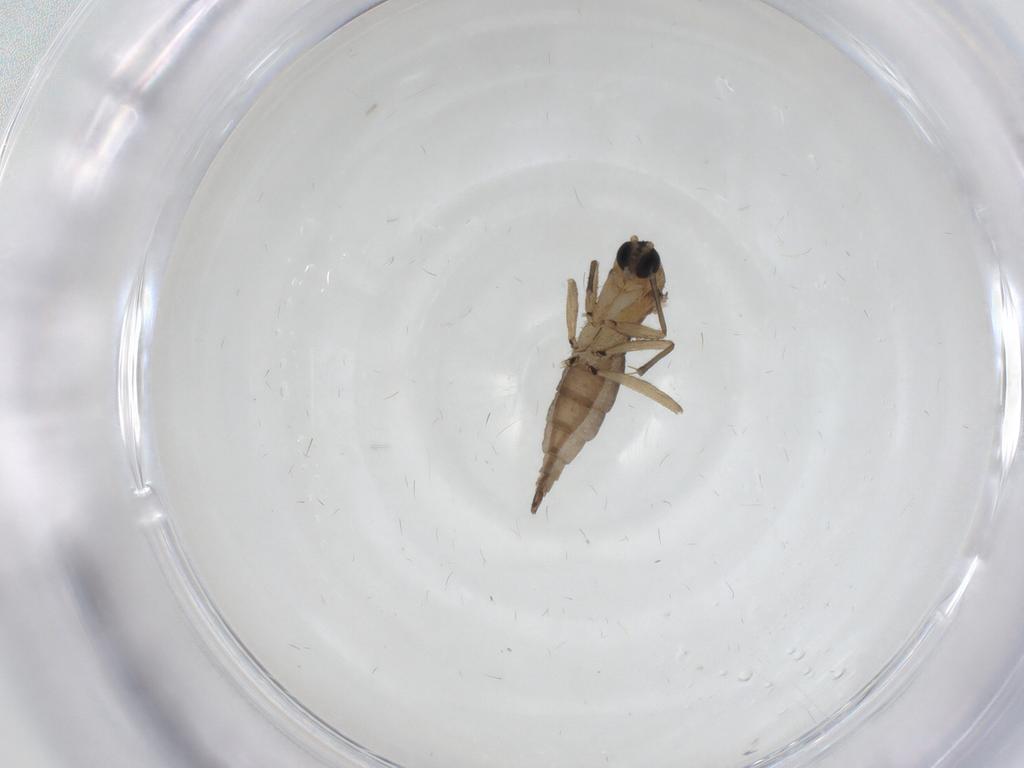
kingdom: Animalia
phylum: Arthropoda
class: Insecta
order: Diptera
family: Sciaridae
